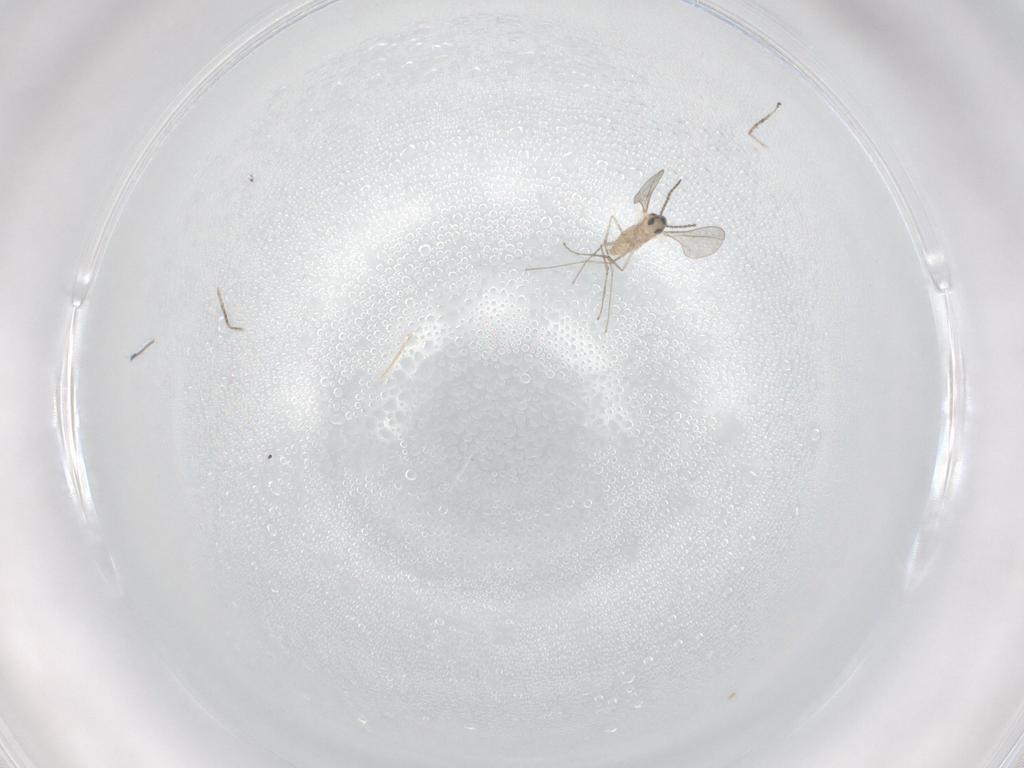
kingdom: Animalia
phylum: Arthropoda
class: Insecta
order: Diptera
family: Cecidomyiidae
